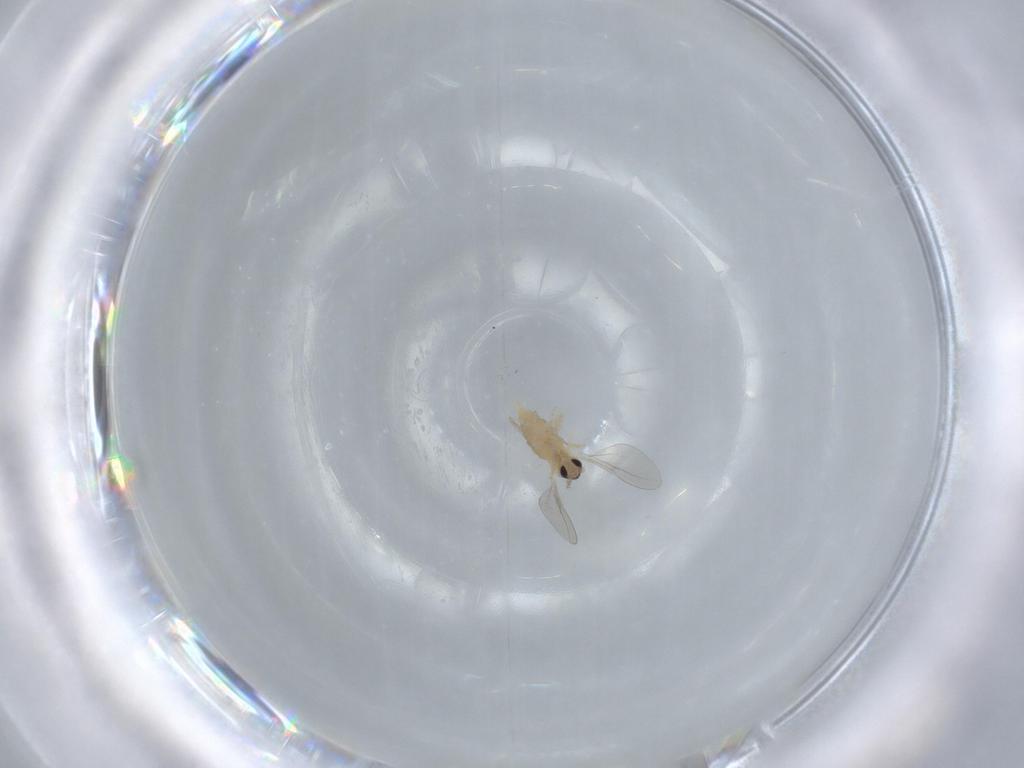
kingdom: Animalia
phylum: Arthropoda
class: Insecta
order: Diptera
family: Cecidomyiidae
